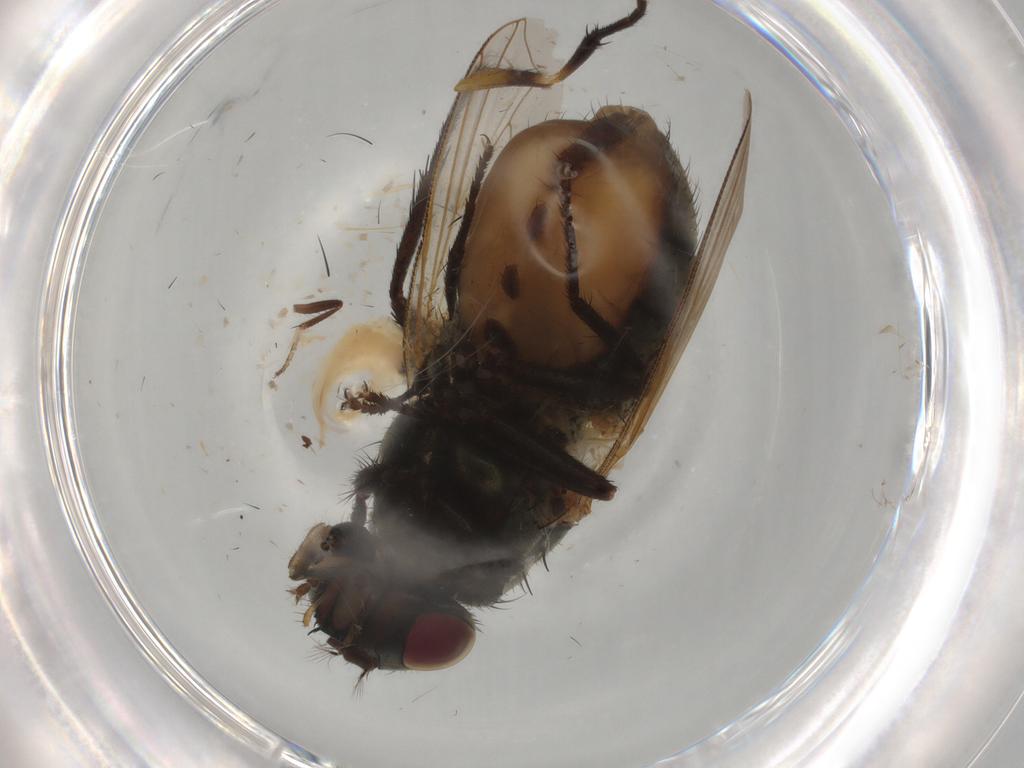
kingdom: Animalia
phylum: Arthropoda
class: Insecta
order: Diptera
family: Muscidae
